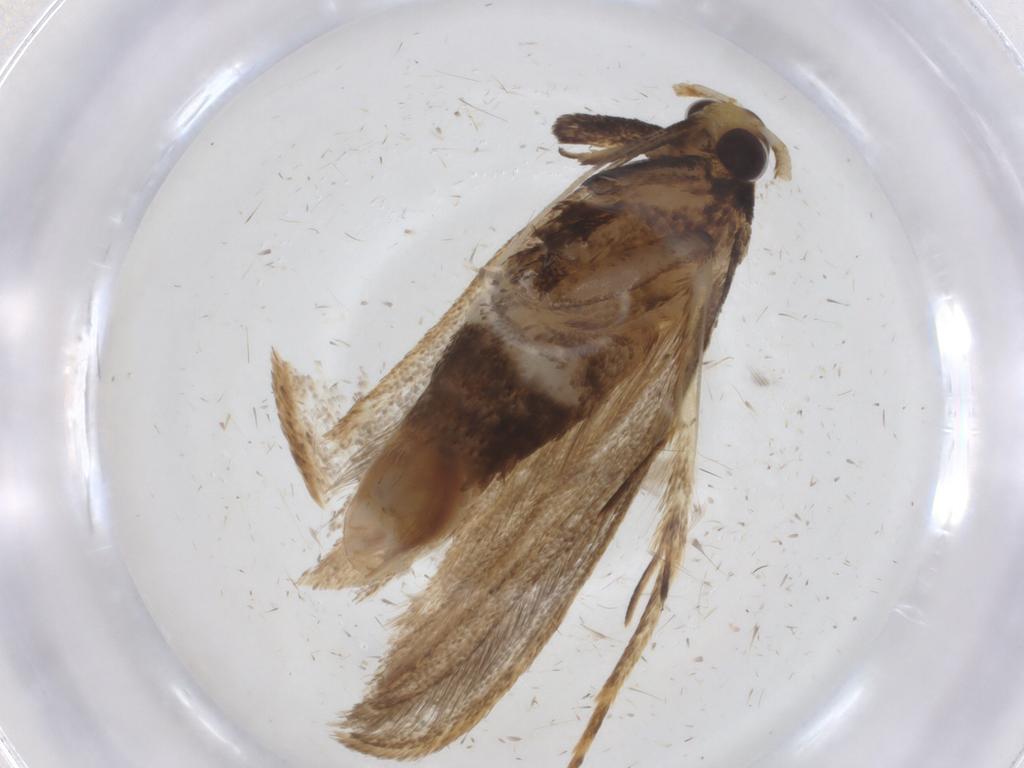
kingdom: Animalia
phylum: Arthropoda
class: Insecta
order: Lepidoptera
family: Lecithoceridae
